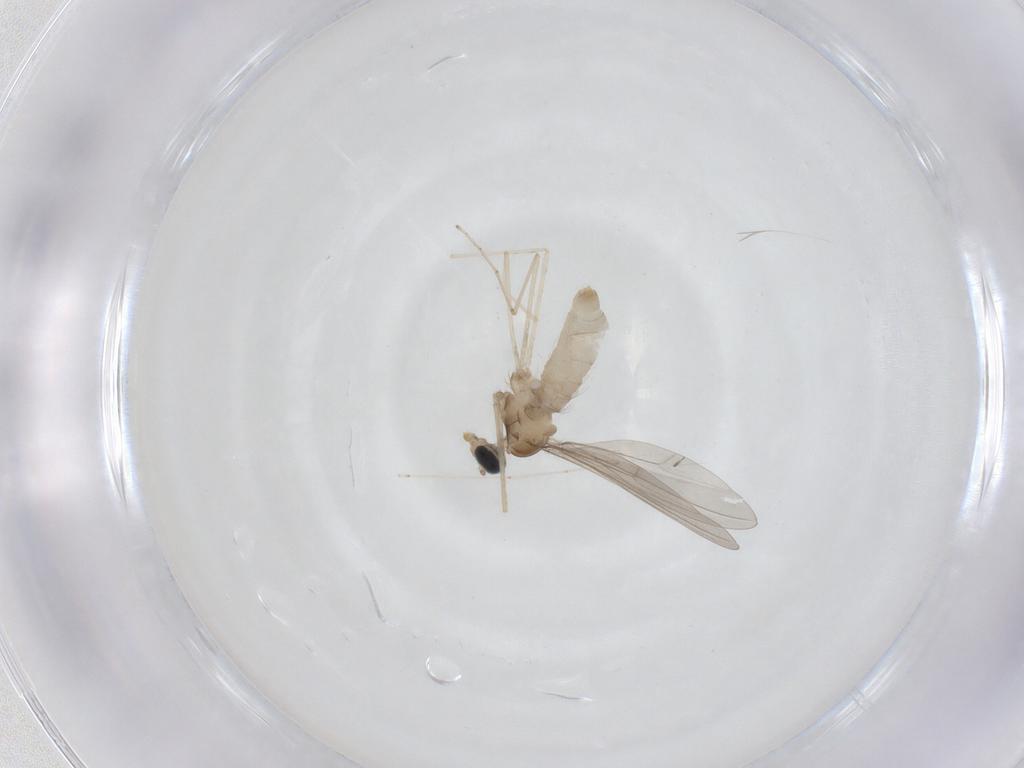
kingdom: Animalia
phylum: Arthropoda
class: Insecta
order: Diptera
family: Cecidomyiidae
